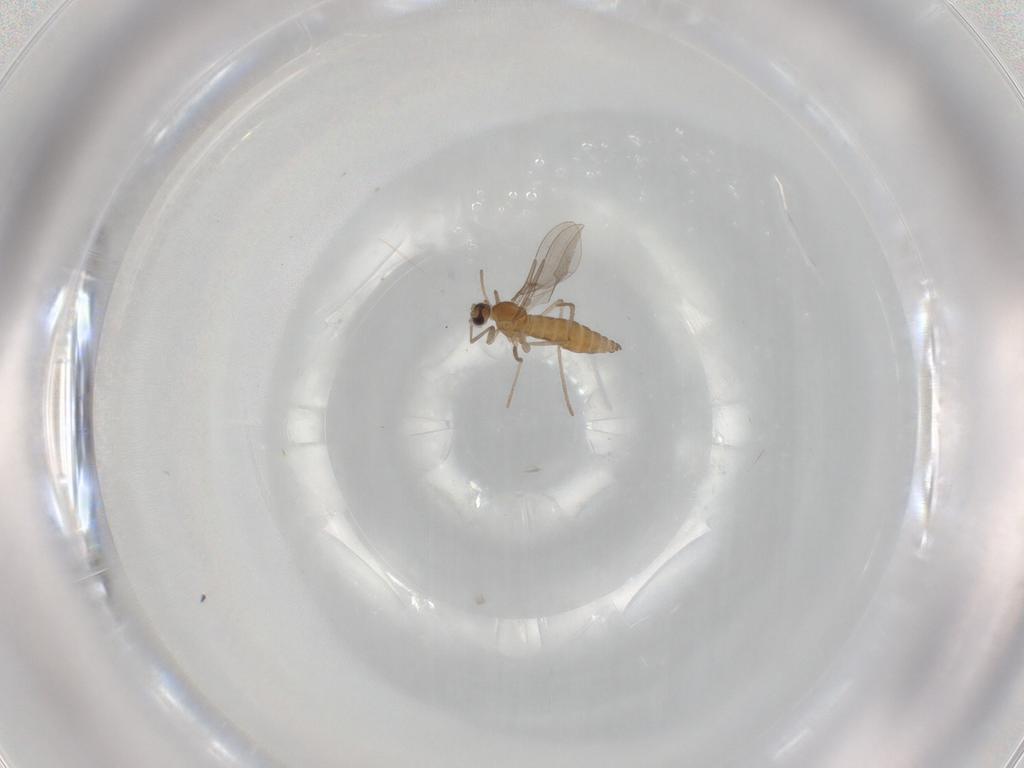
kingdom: Animalia
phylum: Arthropoda
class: Insecta
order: Diptera
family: Cecidomyiidae
